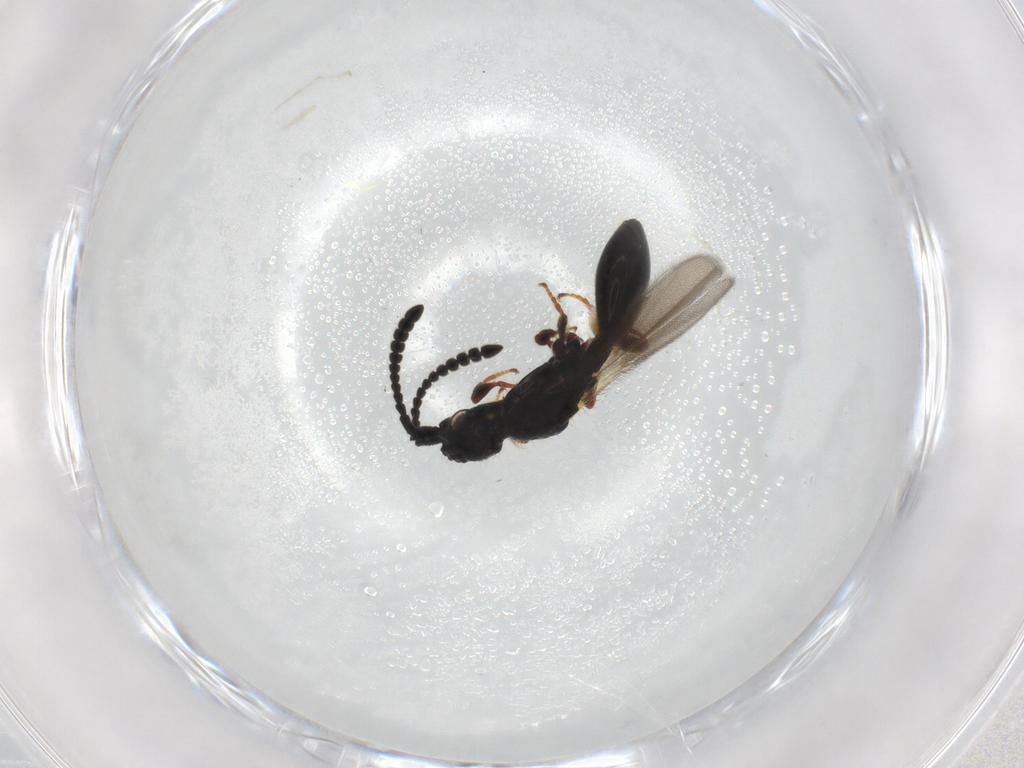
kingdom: Animalia
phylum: Arthropoda
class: Insecta
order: Hymenoptera
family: Diapriidae
